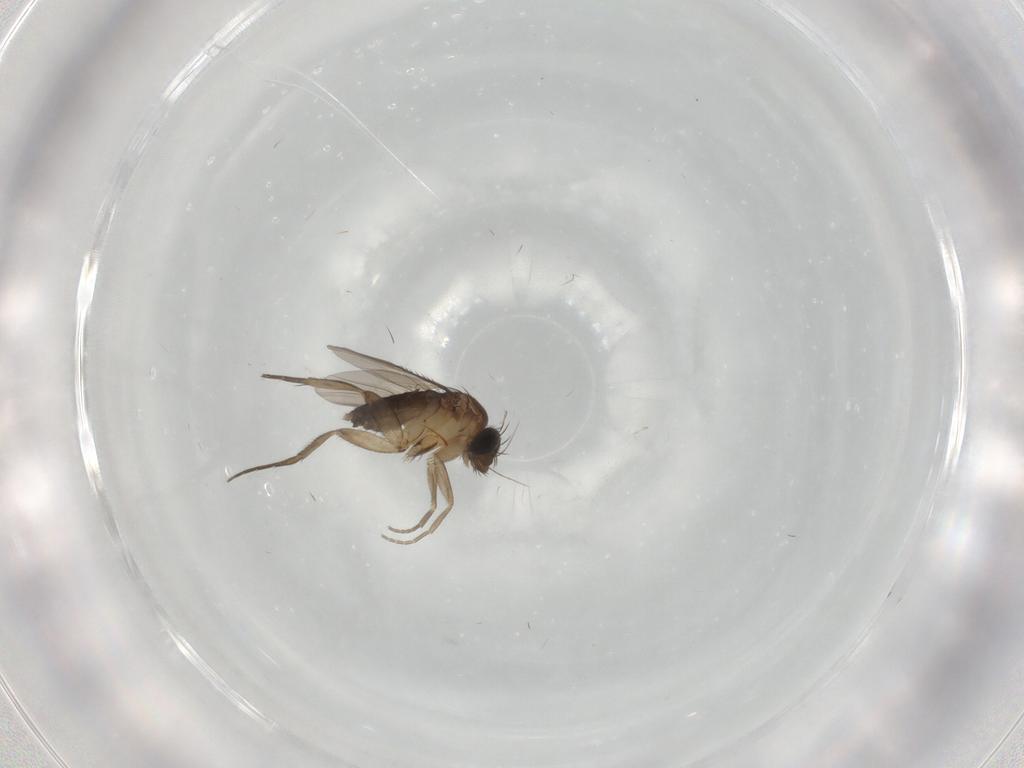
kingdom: Animalia
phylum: Arthropoda
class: Insecta
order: Diptera
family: Phoridae
